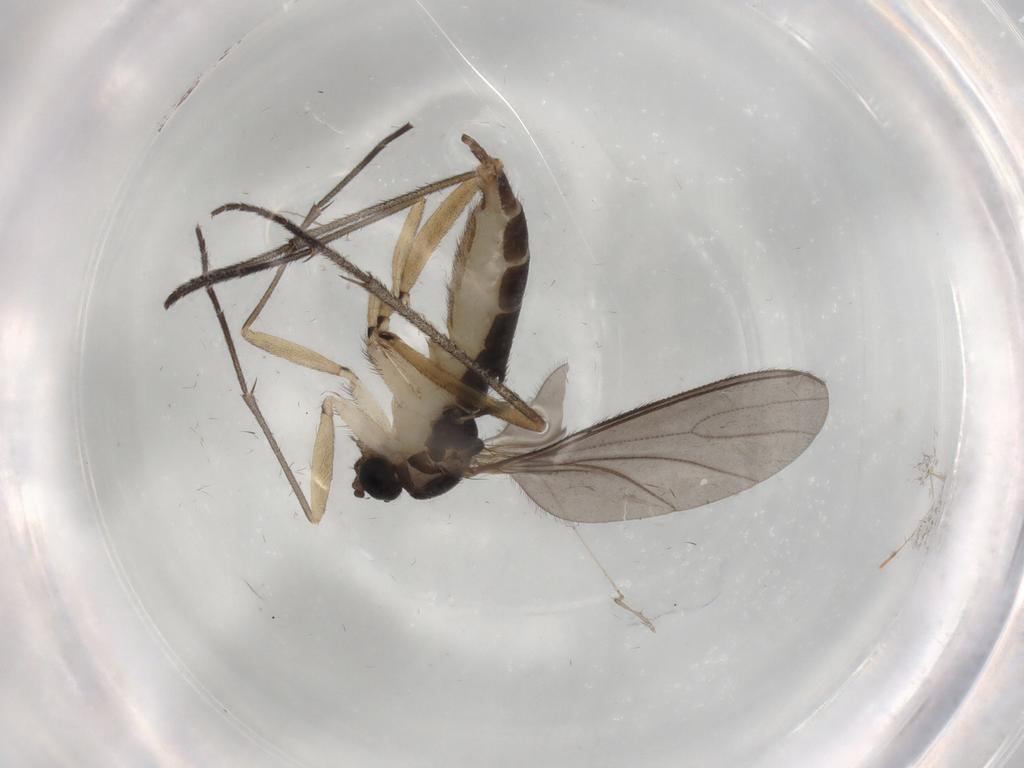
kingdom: Animalia
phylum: Arthropoda
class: Insecta
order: Diptera
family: Sciaridae
